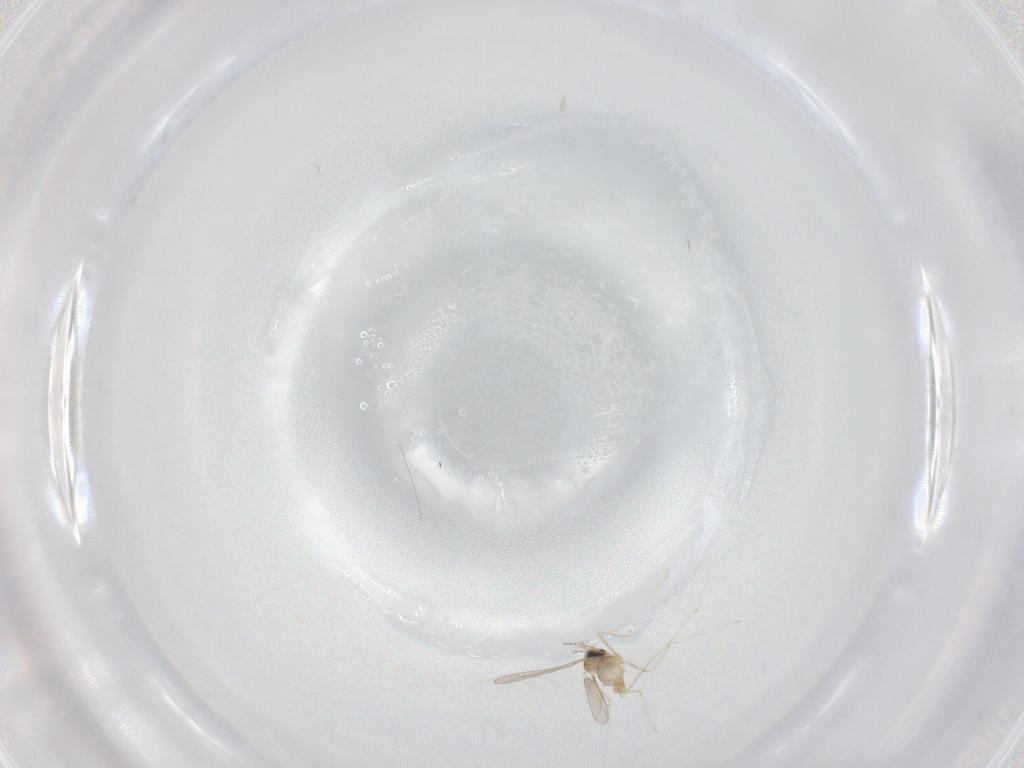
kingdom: Animalia
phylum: Arthropoda
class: Insecta
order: Diptera
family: Cecidomyiidae
